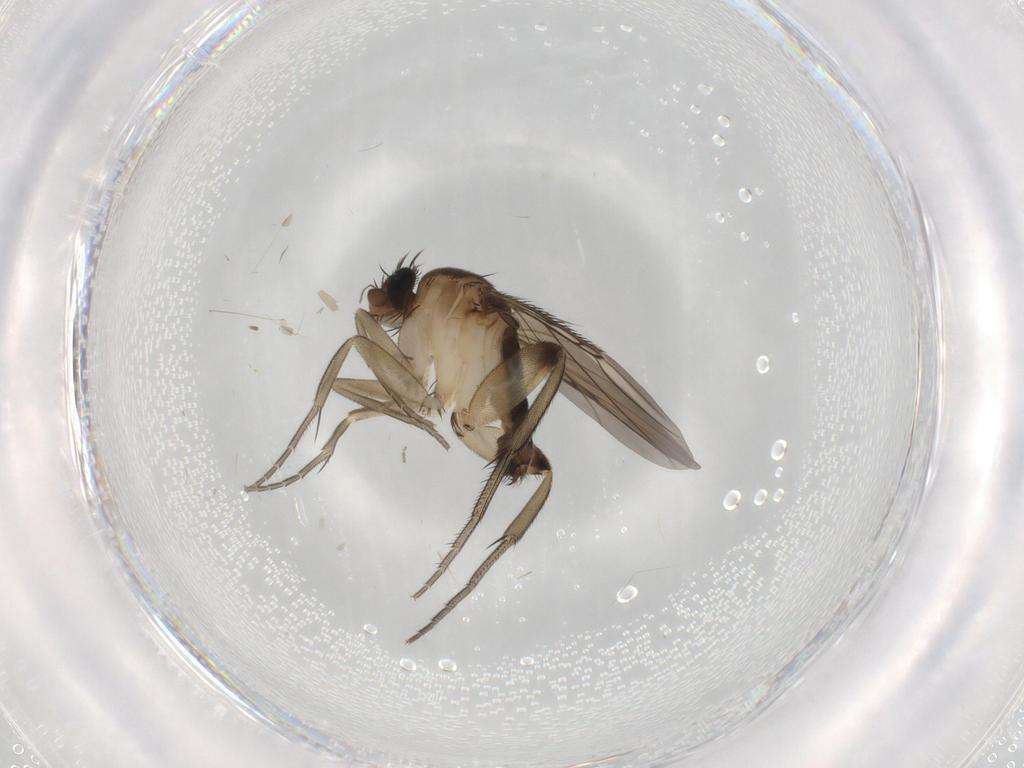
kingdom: Animalia
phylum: Arthropoda
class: Insecta
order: Diptera
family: Phoridae
